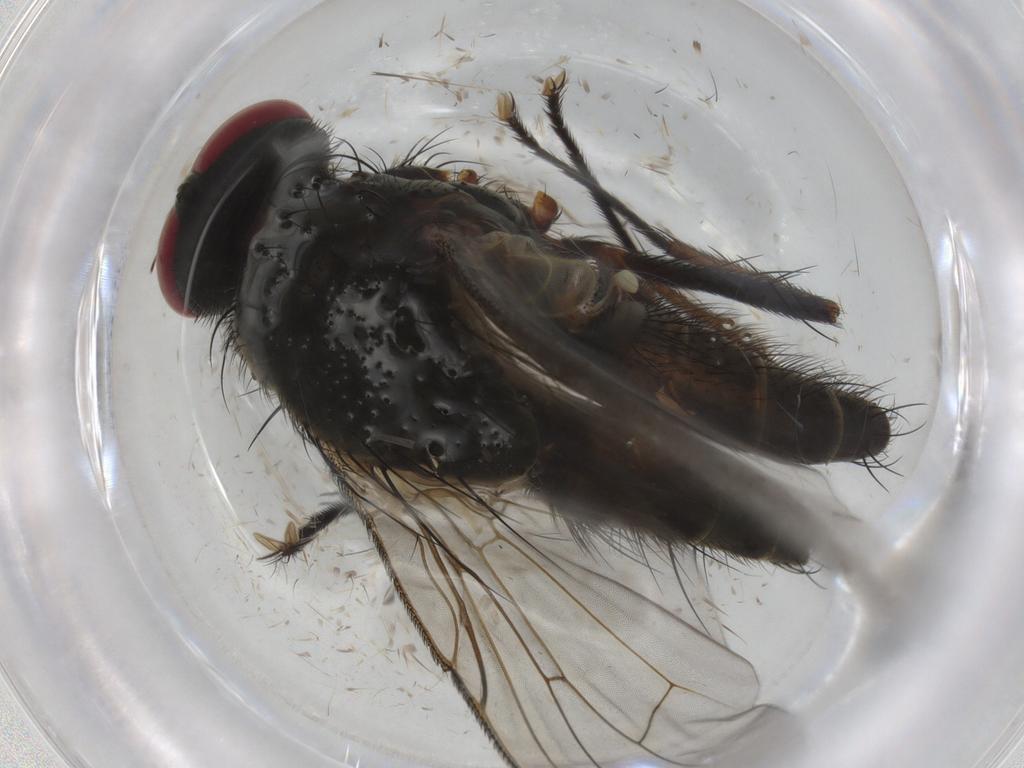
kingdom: Animalia
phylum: Arthropoda
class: Insecta
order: Diptera
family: Muscidae
